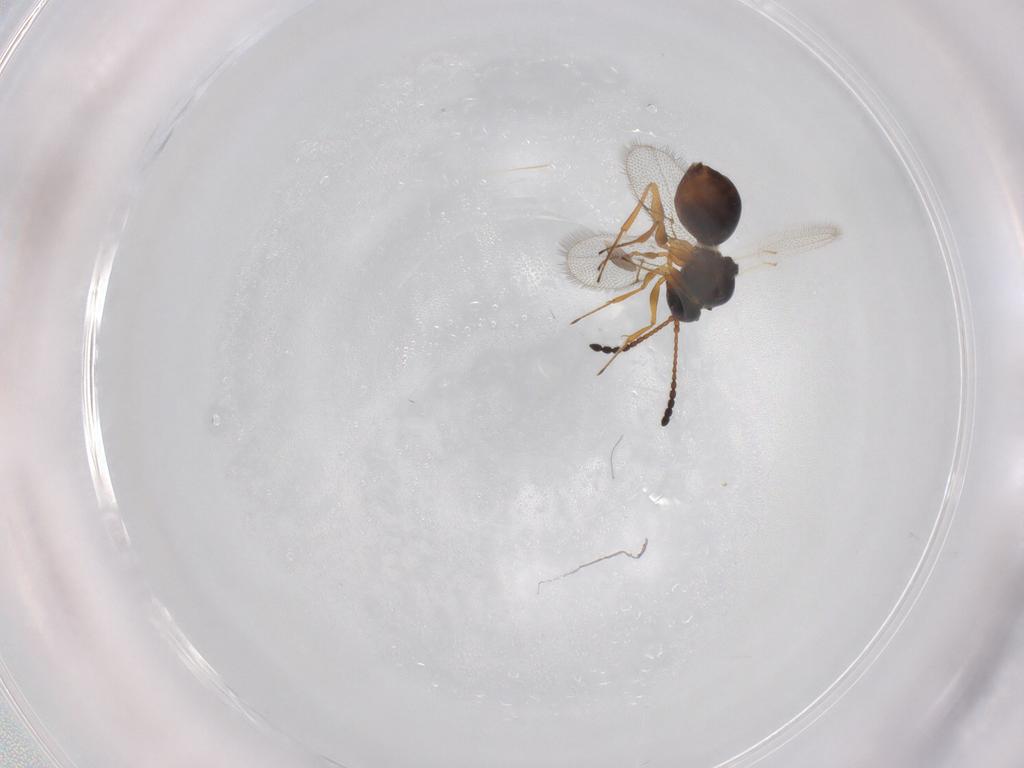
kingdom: Animalia
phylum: Arthropoda
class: Insecta
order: Hymenoptera
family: Figitidae
